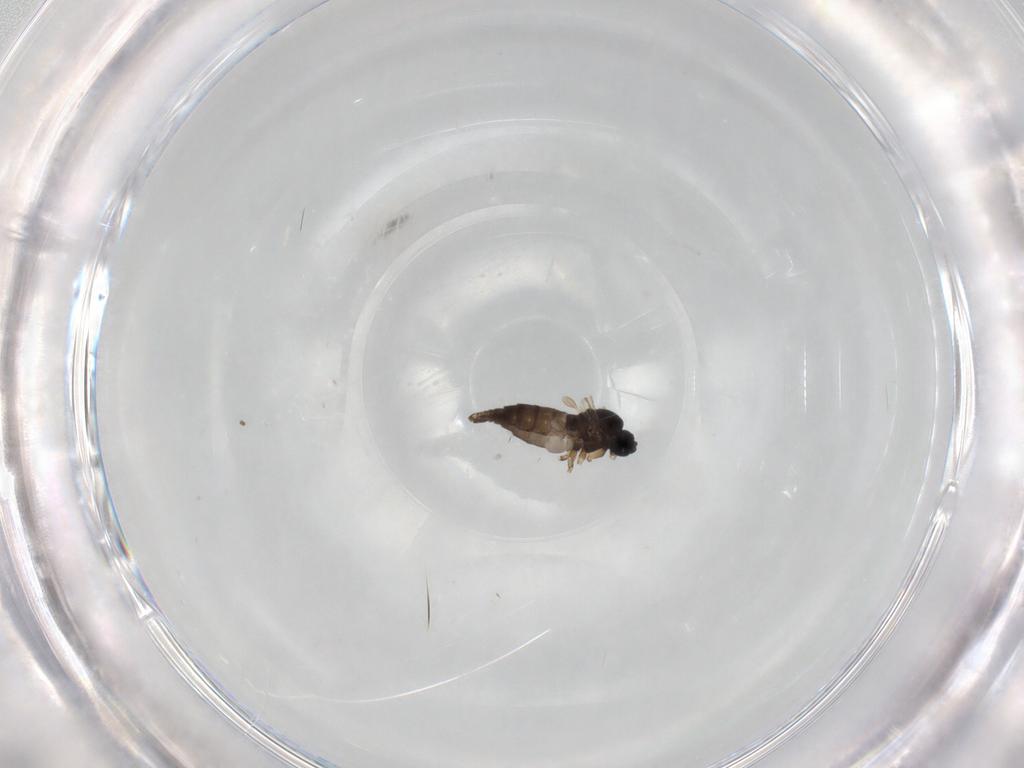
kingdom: Animalia
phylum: Arthropoda
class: Insecta
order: Diptera
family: Sciaridae
